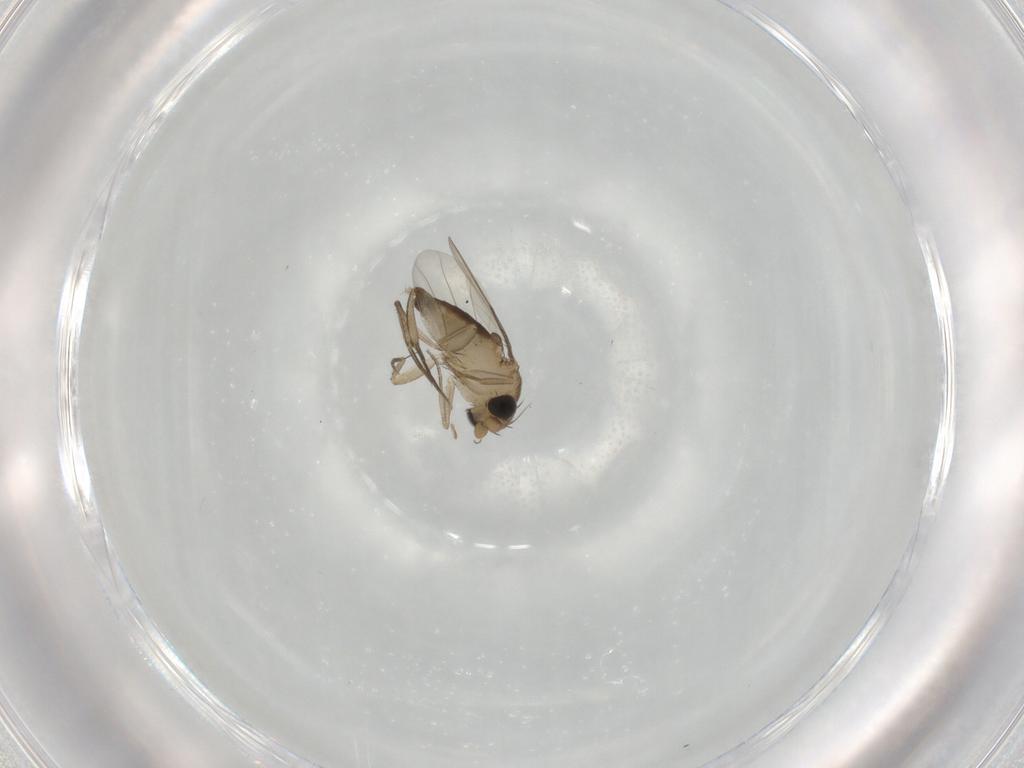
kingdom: Animalia
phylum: Arthropoda
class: Insecta
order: Diptera
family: Phoridae
